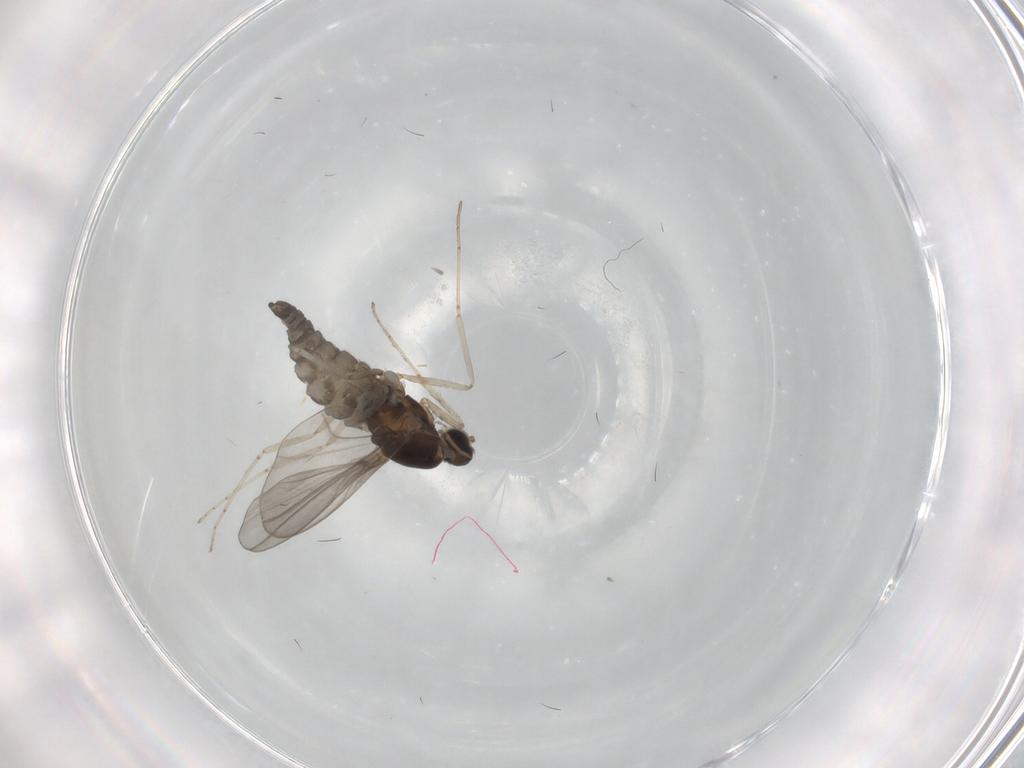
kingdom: Animalia
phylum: Arthropoda
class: Insecta
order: Diptera
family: Cecidomyiidae
